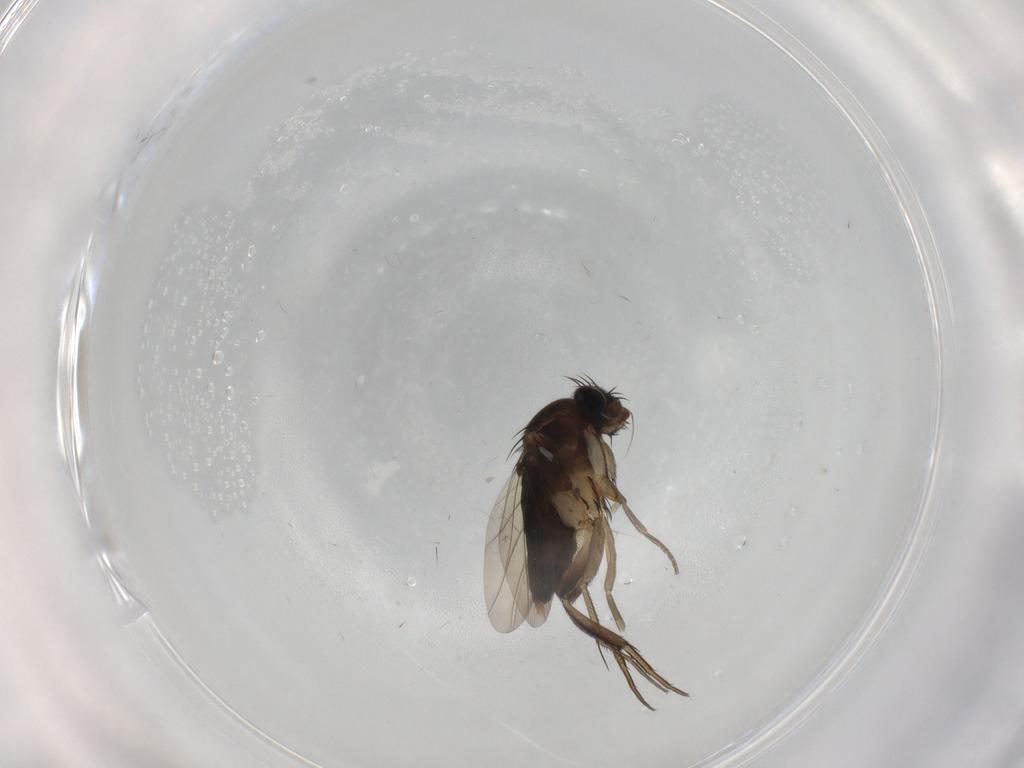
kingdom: Animalia
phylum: Arthropoda
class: Insecta
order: Diptera
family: Phoridae
